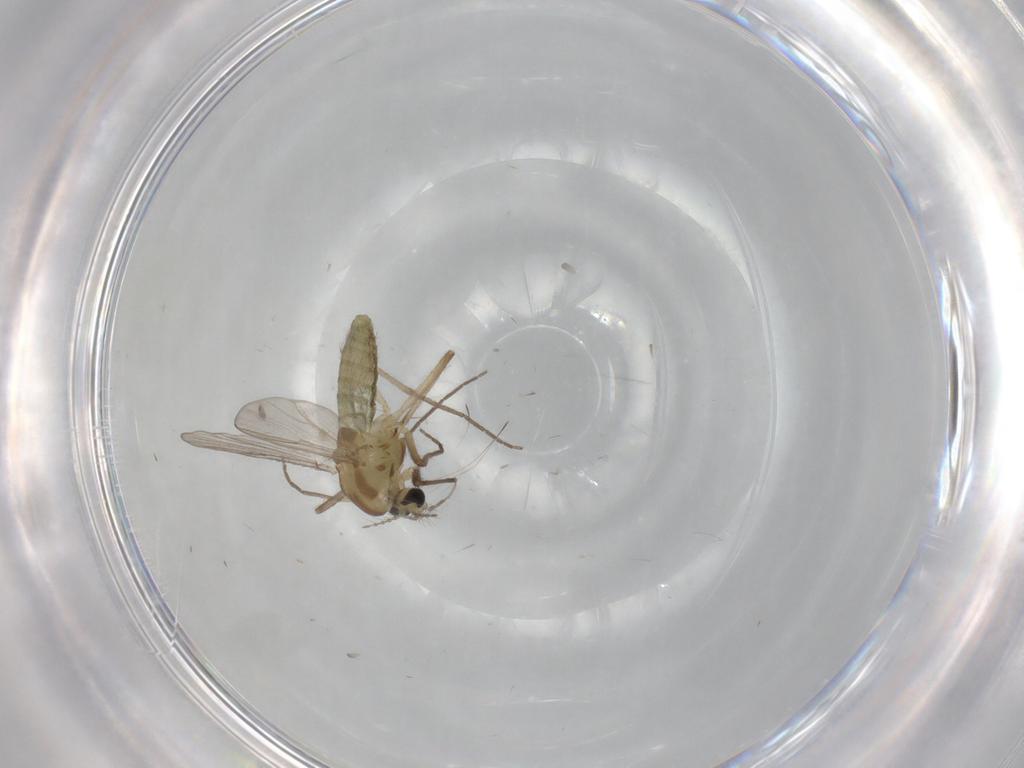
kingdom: Animalia
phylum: Arthropoda
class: Insecta
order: Diptera
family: Chironomidae
